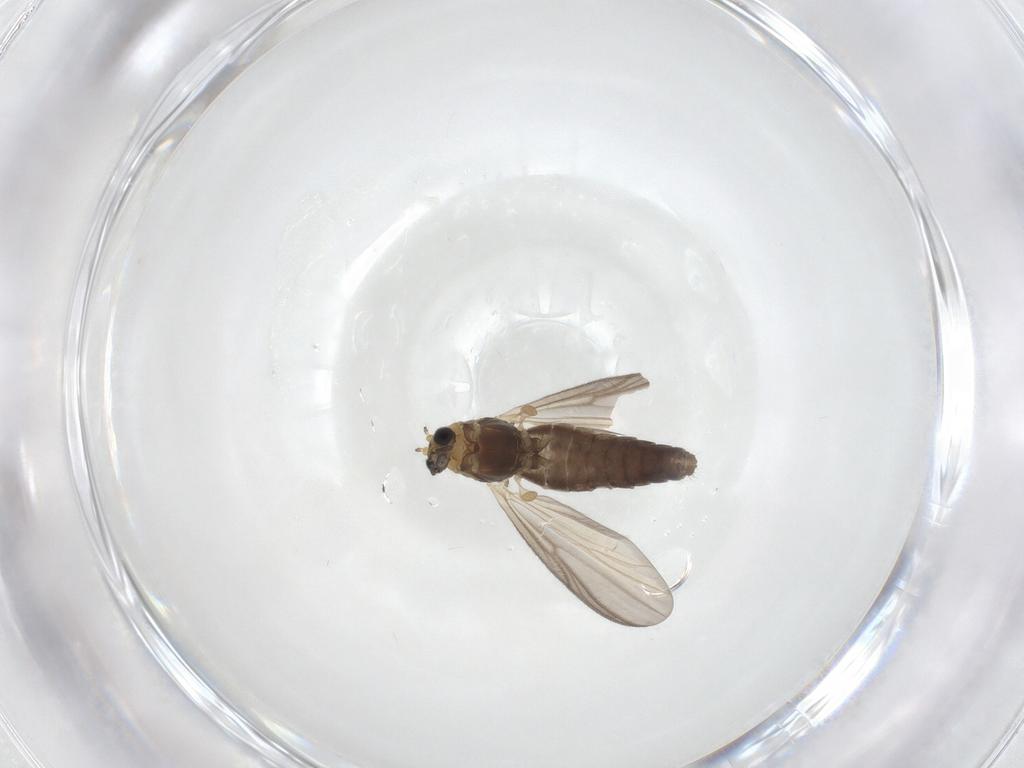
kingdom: Animalia
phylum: Arthropoda
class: Insecta
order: Diptera
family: Chironomidae
